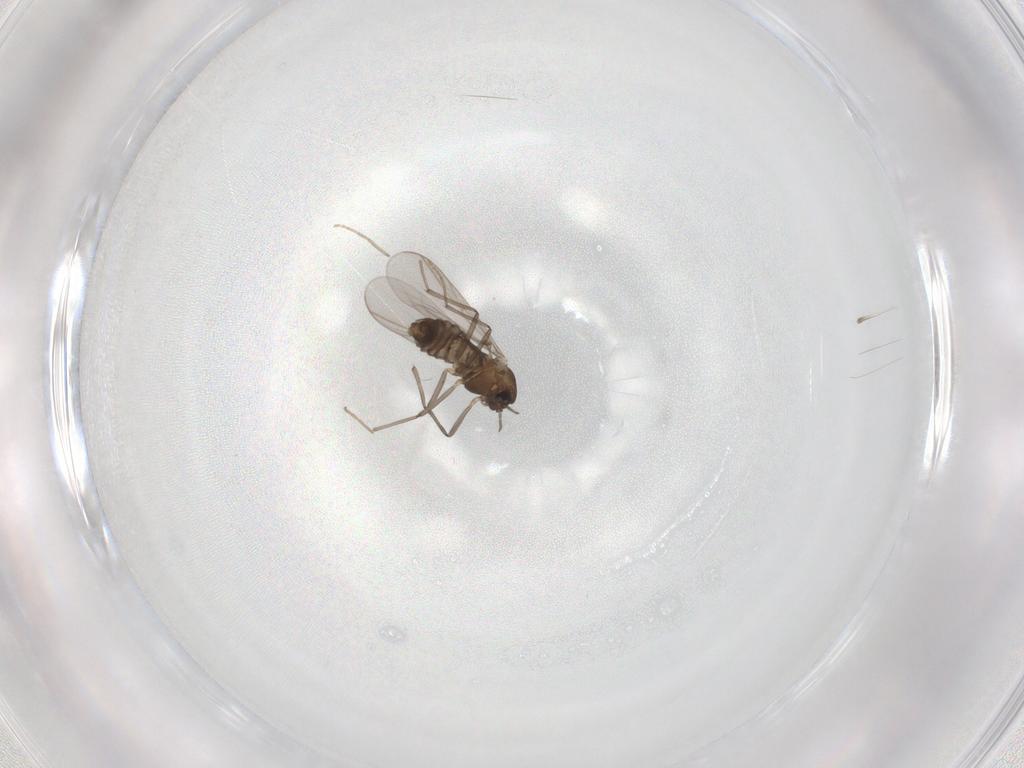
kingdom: Animalia
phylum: Arthropoda
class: Insecta
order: Diptera
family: Chironomidae
